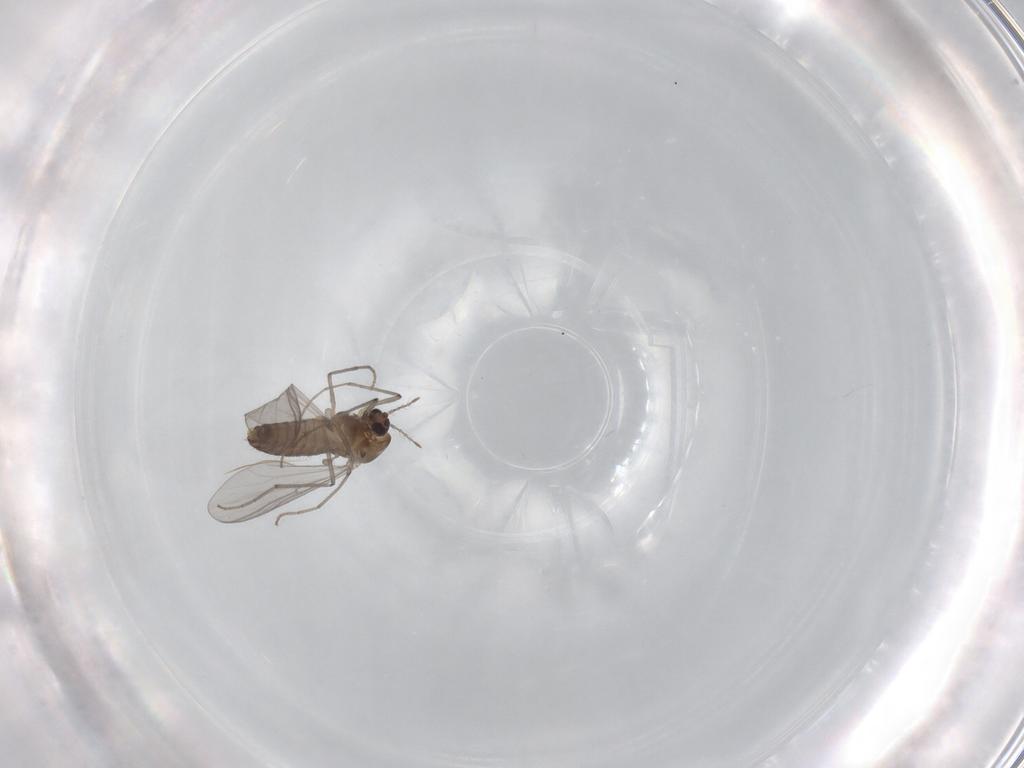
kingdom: Animalia
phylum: Arthropoda
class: Insecta
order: Diptera
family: Chironomidae
